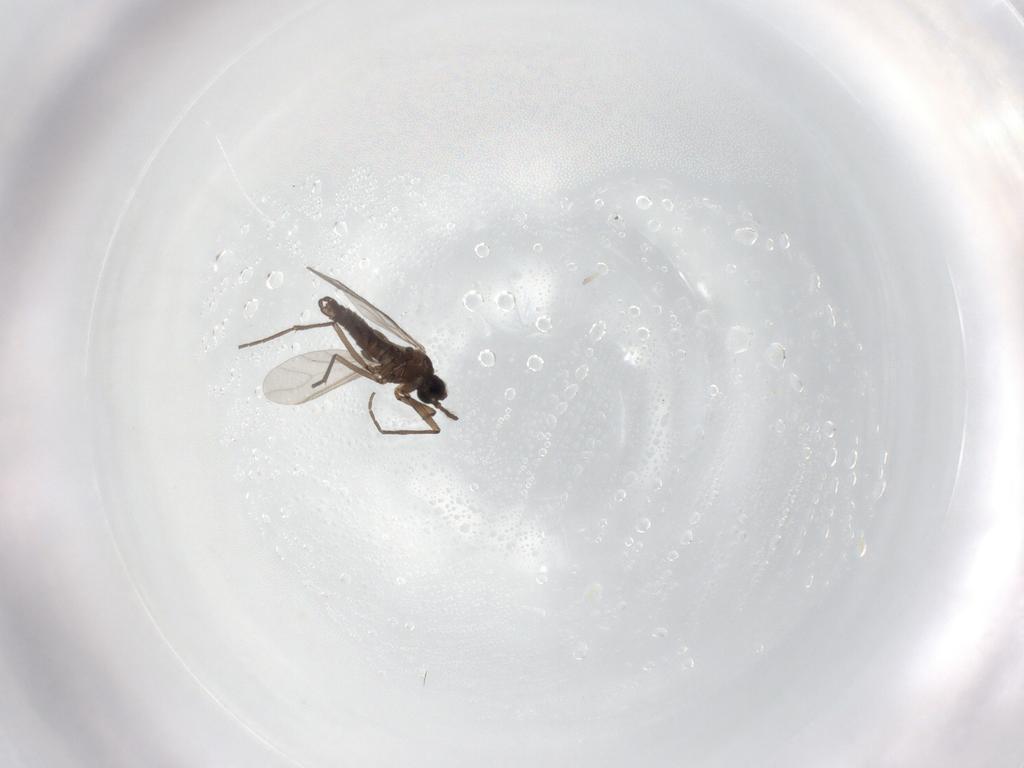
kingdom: Animalia
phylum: Arthropoda
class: Insecta
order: Diptera
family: Sciaridae
